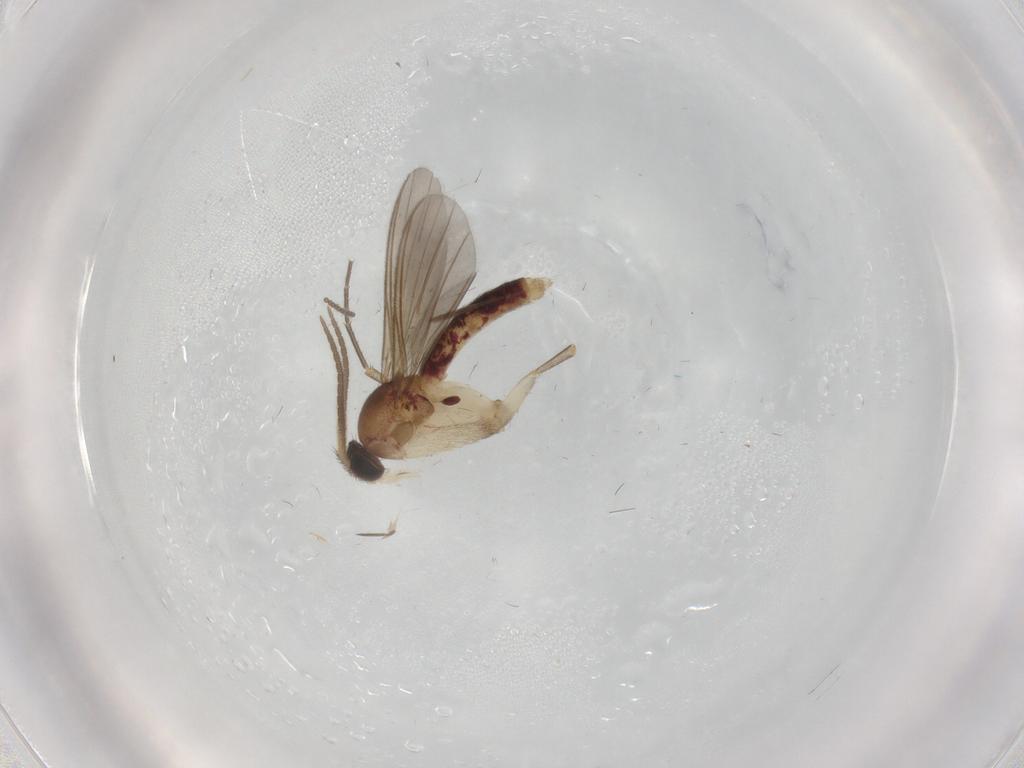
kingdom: Animalia
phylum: Arthropoda
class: Insecta
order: Diptera
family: Mycetophilidae
